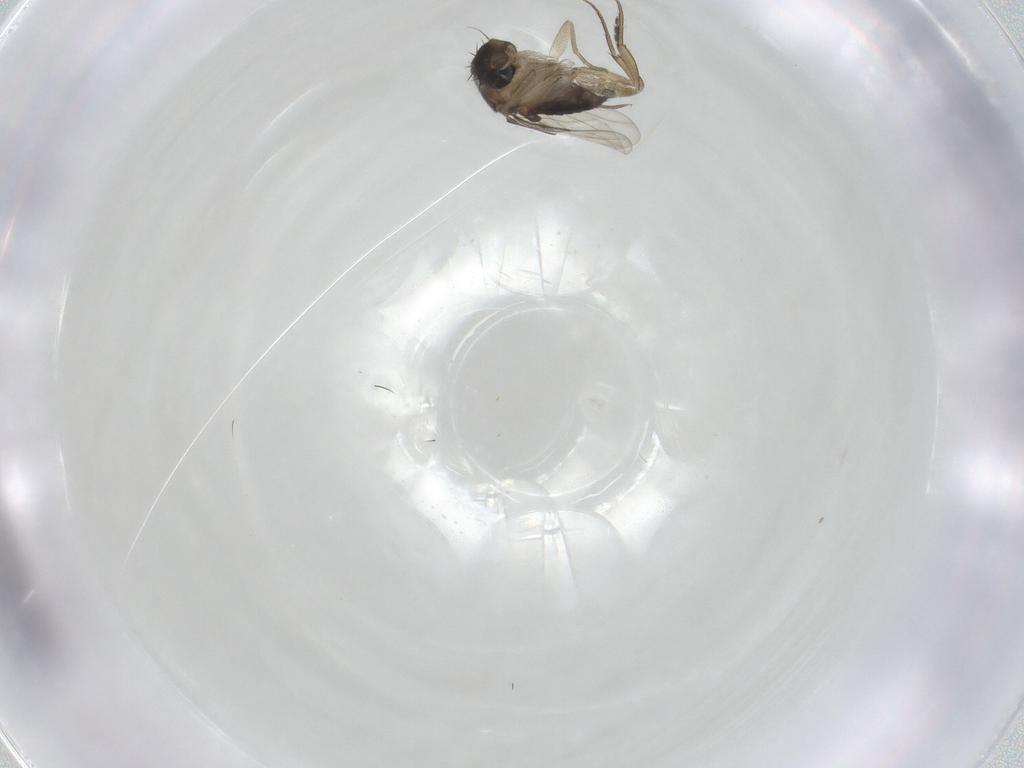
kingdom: Animalia
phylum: Arthropoda
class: Insecta
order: Diptera
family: Phoridae
